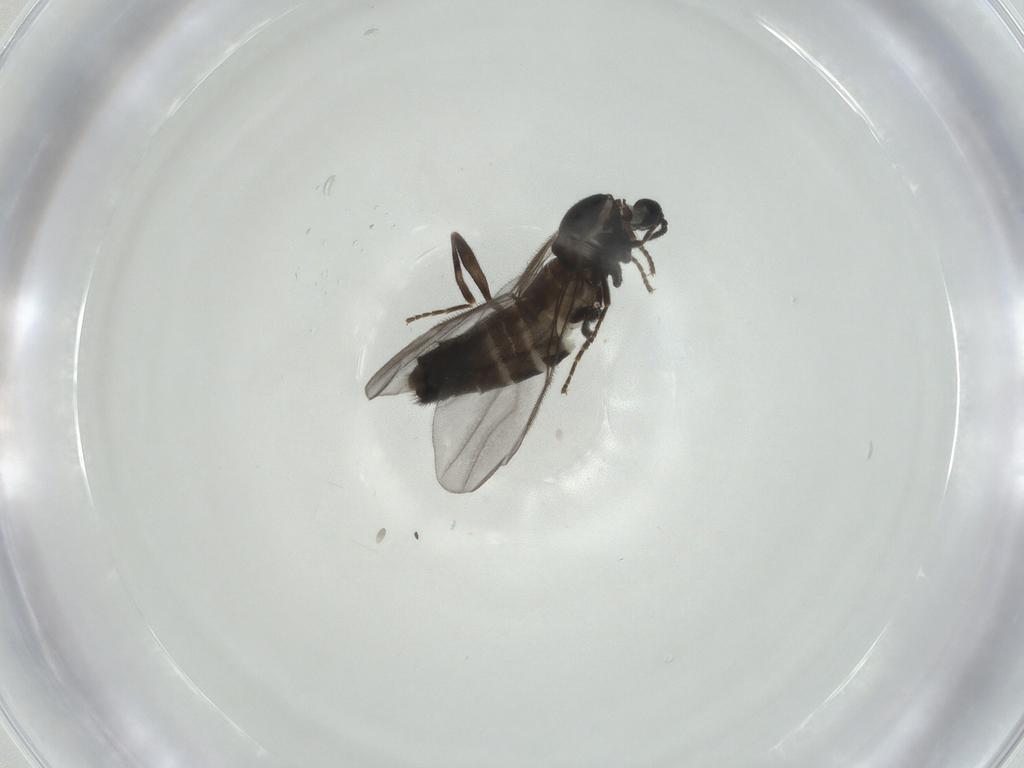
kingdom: Animalia
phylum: Arthropoda
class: Insecta
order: Diptera
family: Scatopsidae
